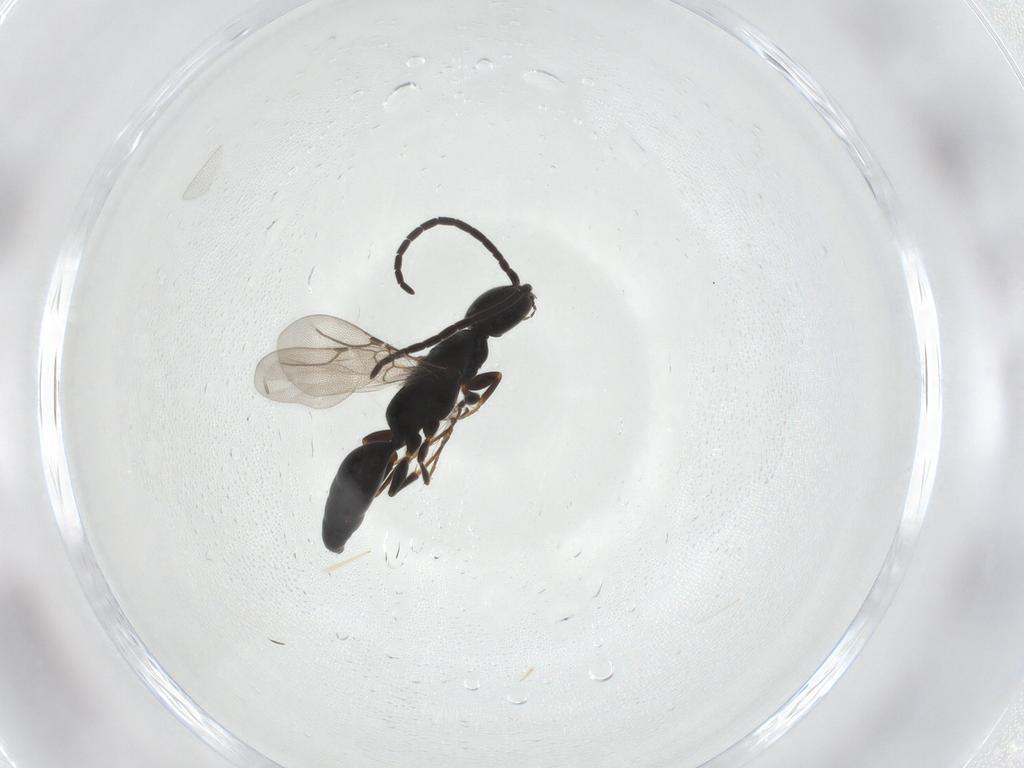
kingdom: Animalia
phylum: Arthropoda
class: Insecta
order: Hymenoptera
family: Bethylidae
